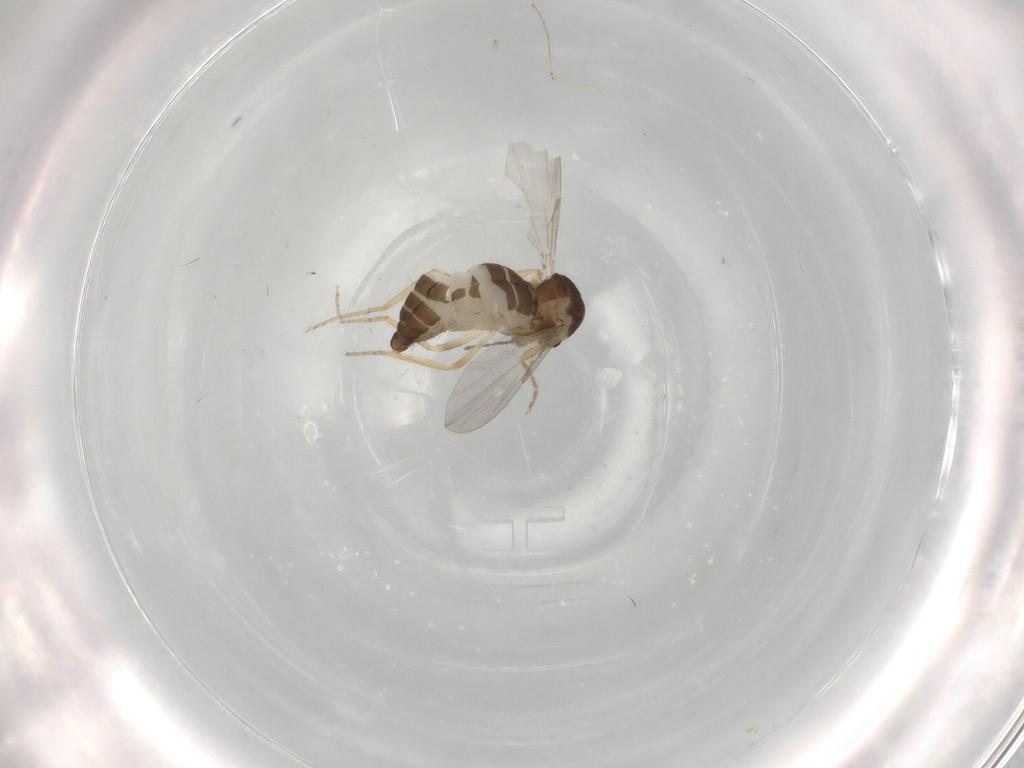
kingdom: Animalia
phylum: Arthropoda
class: Insecta
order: Diptera
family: Ceratopogonidae
